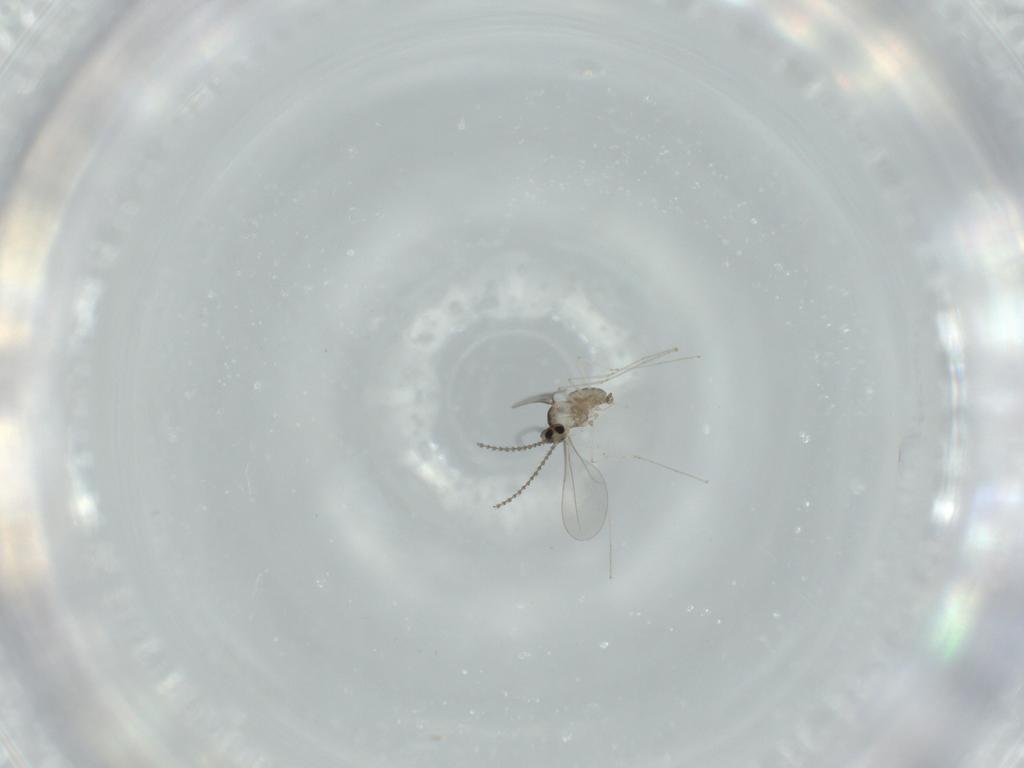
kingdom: Animalia
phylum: Arthropoda
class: Insecta
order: Diptera
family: Cecidomyiidae
